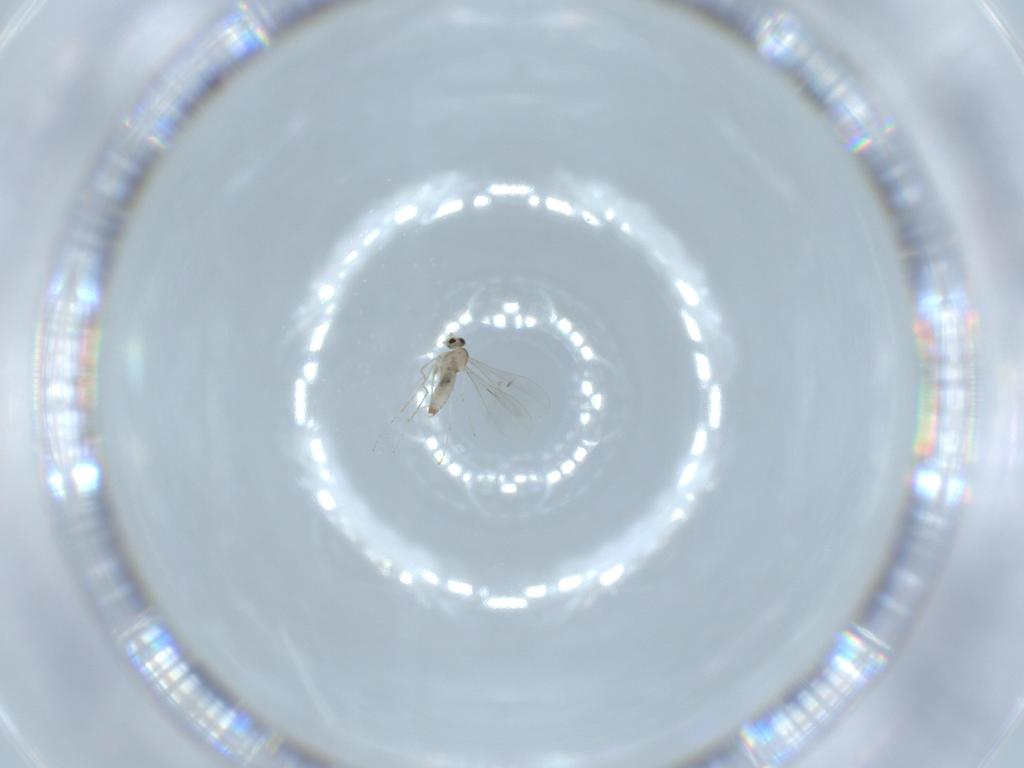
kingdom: Animalia
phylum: Arthropoda
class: Insecta
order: Diptera
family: Cecidomyiidae
